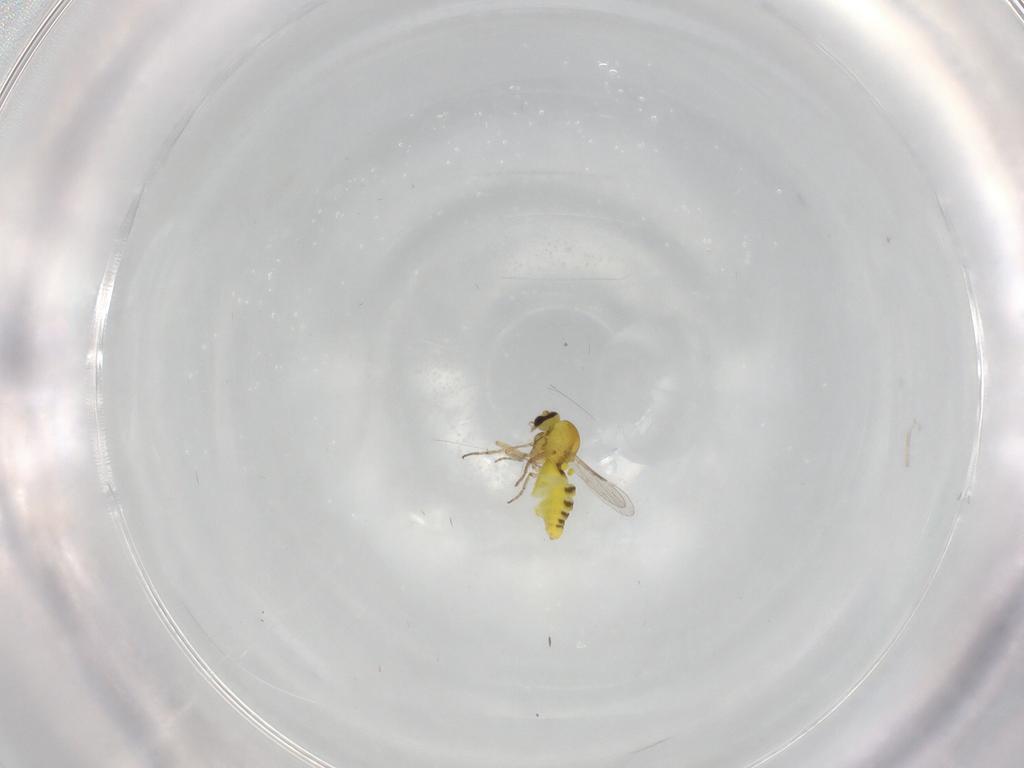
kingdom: Animalia
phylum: Arthropoda
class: Insecta
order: Diptera
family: Ceratopogonidae
